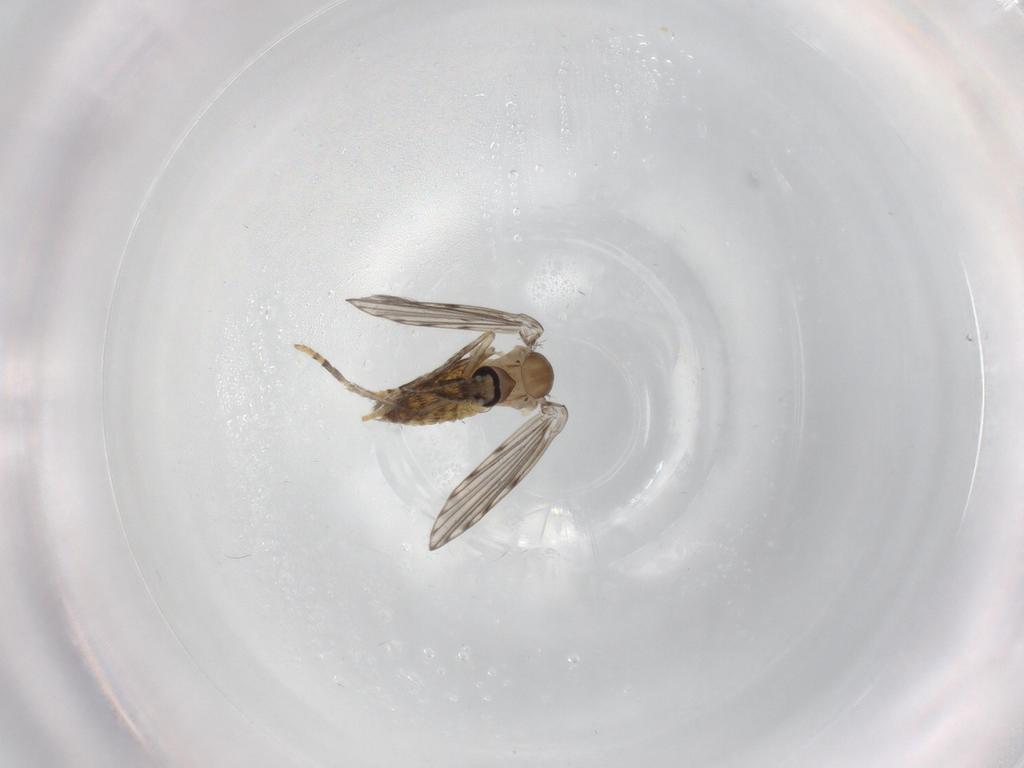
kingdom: Animalia
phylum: Arthropoda
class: Insecta
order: Diptera
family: Psychodidae
